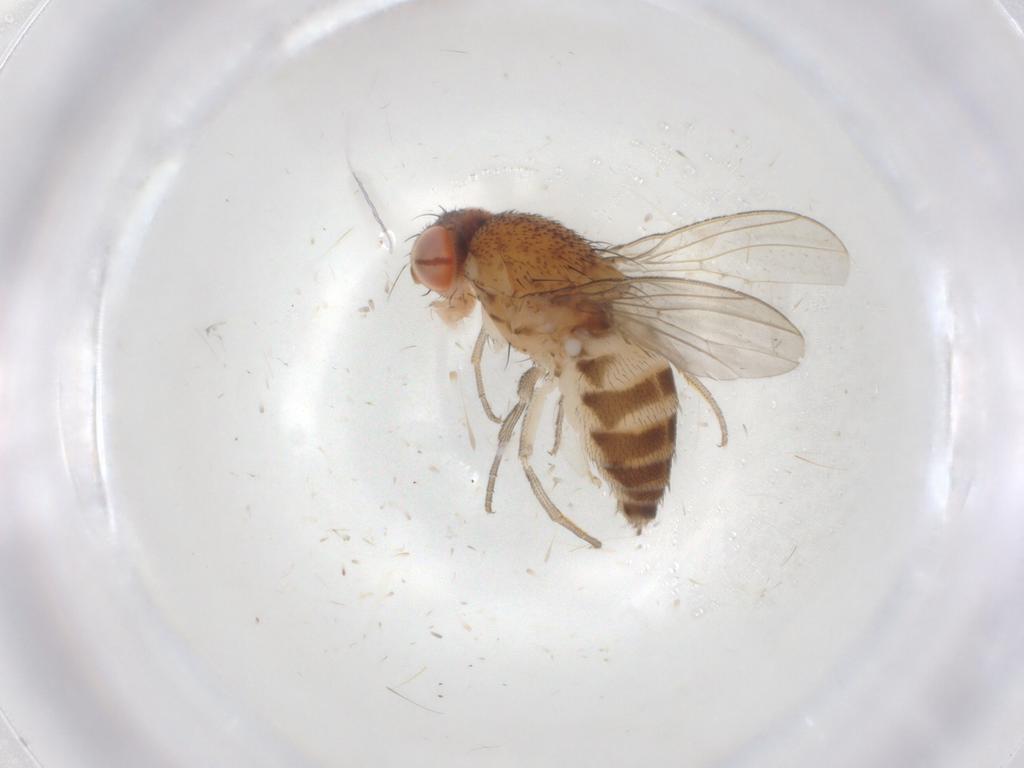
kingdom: Animalia
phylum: Arthropoda
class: Insecta
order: Diptera
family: Drosophilidae
